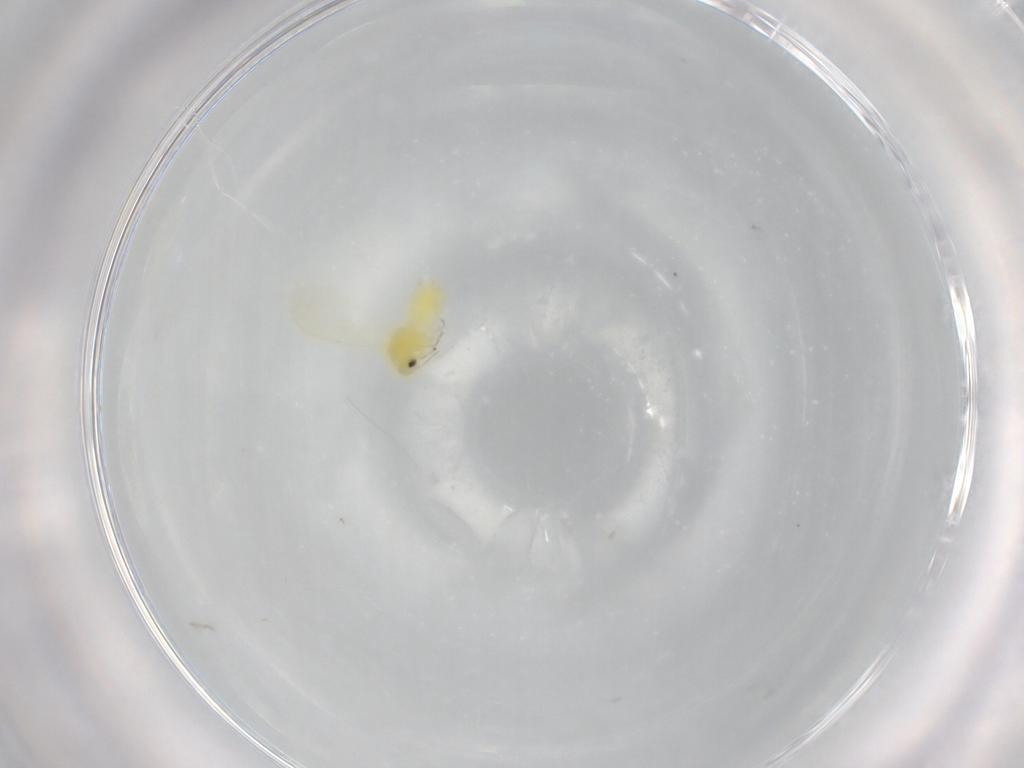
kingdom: Animalia
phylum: Arthropoda
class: Insecta
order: Hemiptera
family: Aleyrodidae
